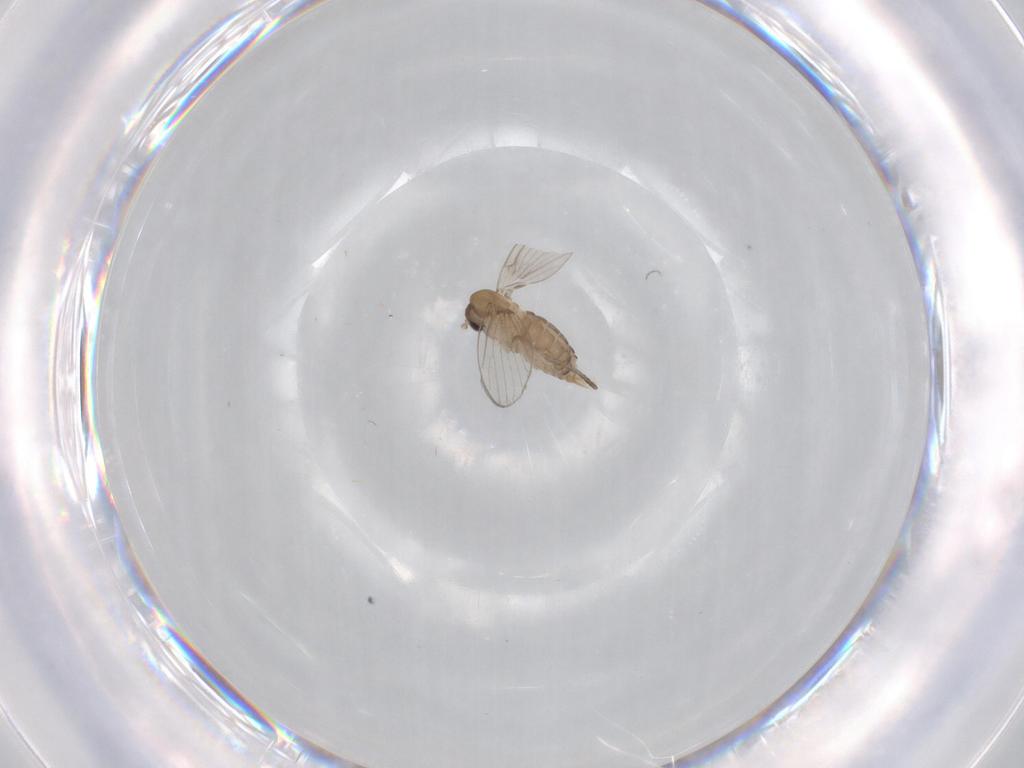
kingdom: Animalia
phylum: Arthropoda
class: Insecta
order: Diptera
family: Psychodidae
